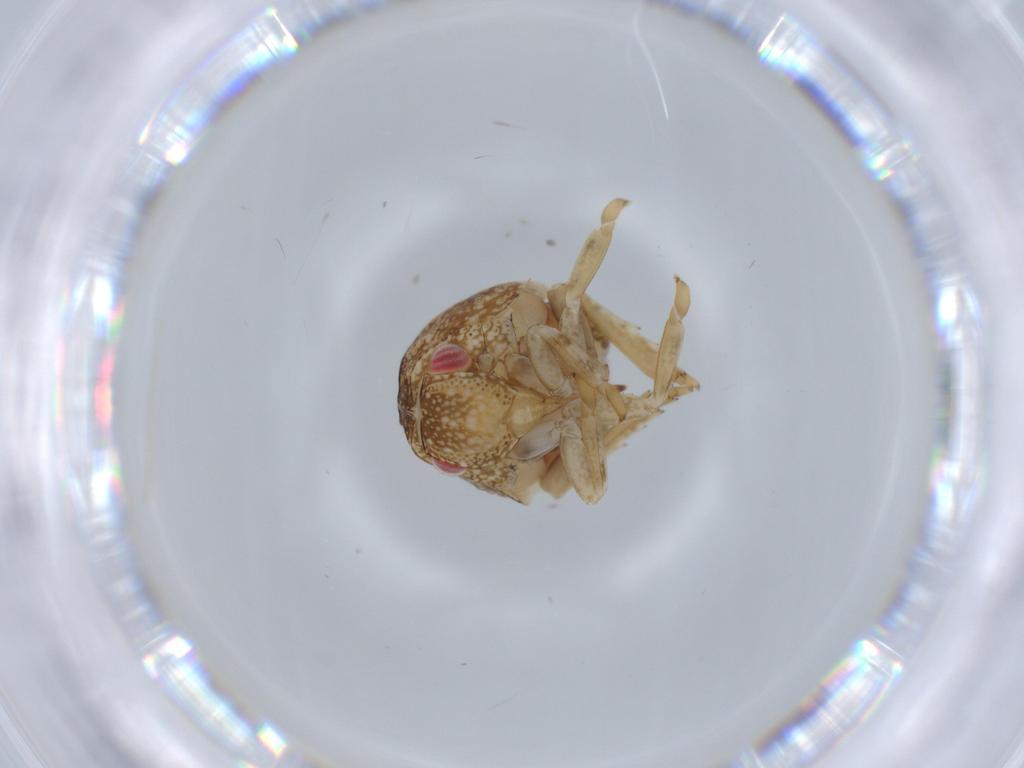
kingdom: Animalia
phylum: Arthropoda
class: Insecta
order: Hemiptera
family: Acanaloniidae
